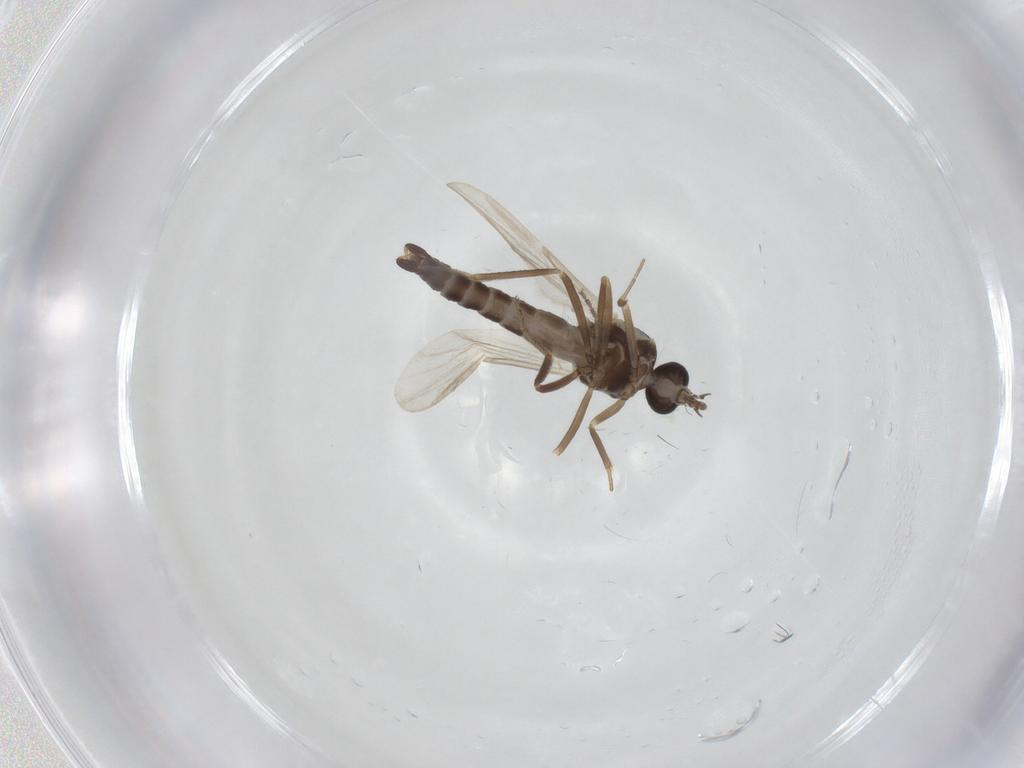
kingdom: Animalia
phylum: Arthropoda
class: Insecta
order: Diptera
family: Ceratopogonidae
